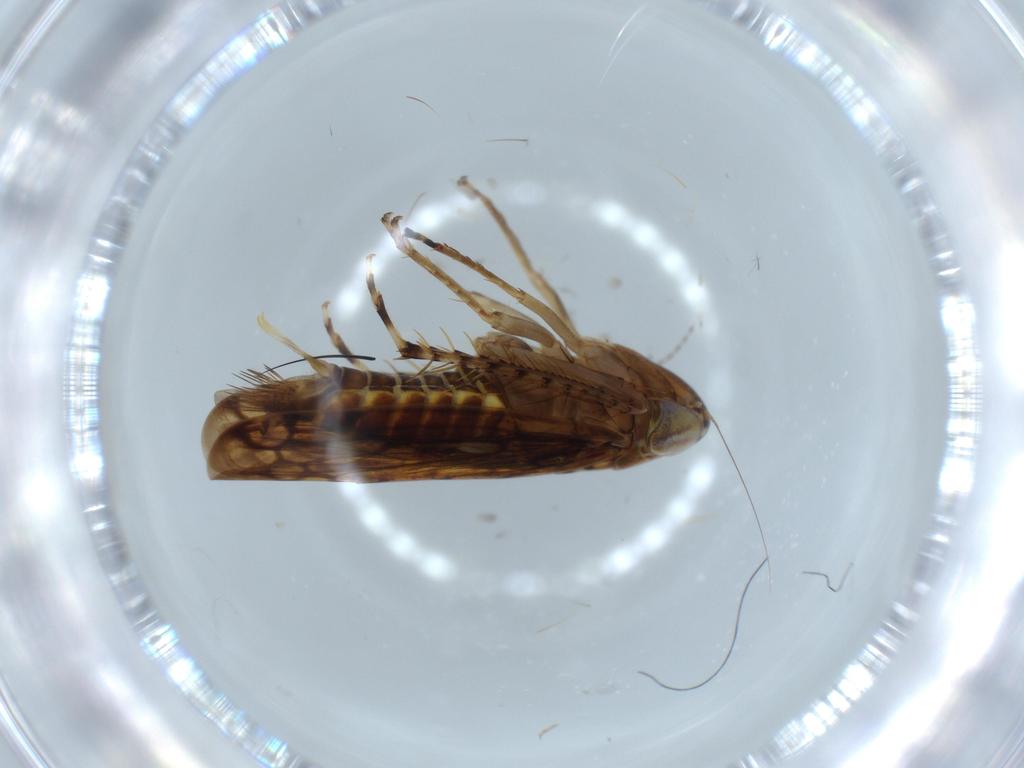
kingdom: Animalia
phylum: Arthropoda
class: Insecta
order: Hemiptera
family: Cicadellidae
